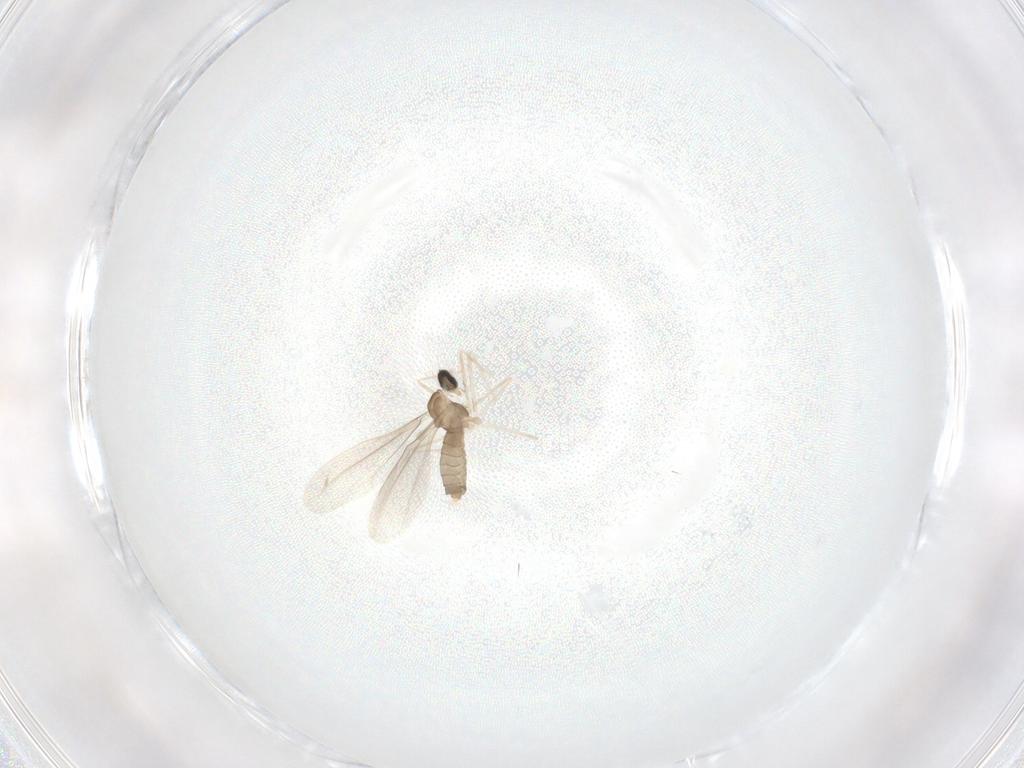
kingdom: Animalia
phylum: Arthropoda
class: Insecta
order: Diptera
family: Cecidomyiidae
